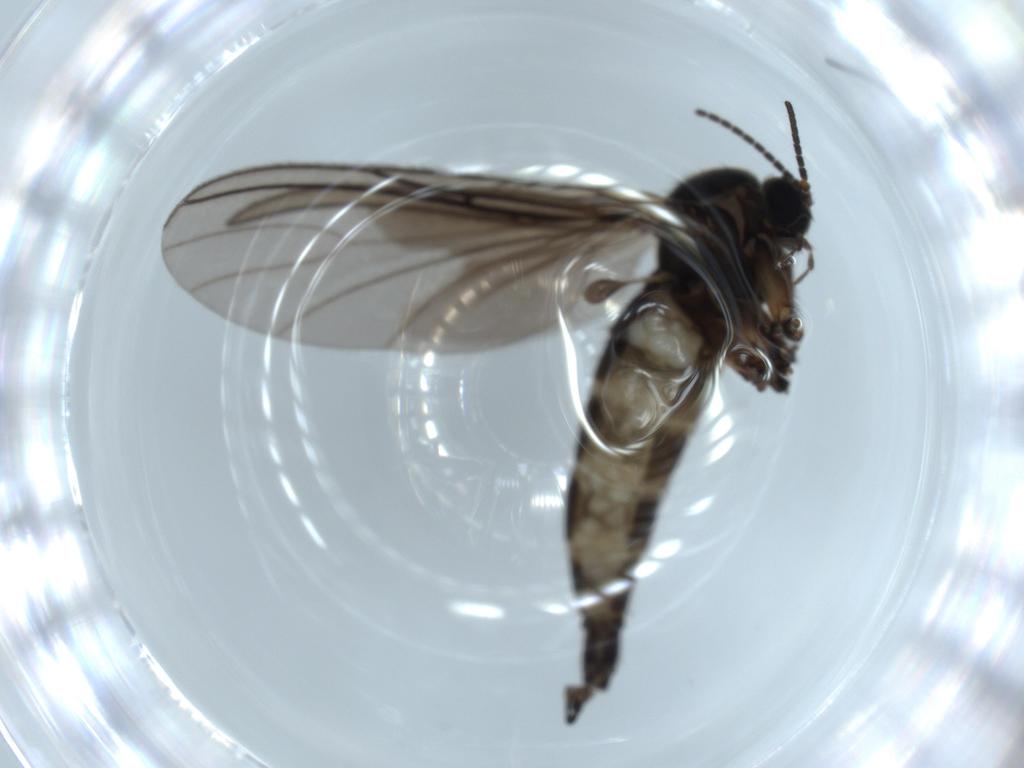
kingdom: Animalia
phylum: Arthropoda
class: Insecta
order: Diptera
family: Sciaridae
